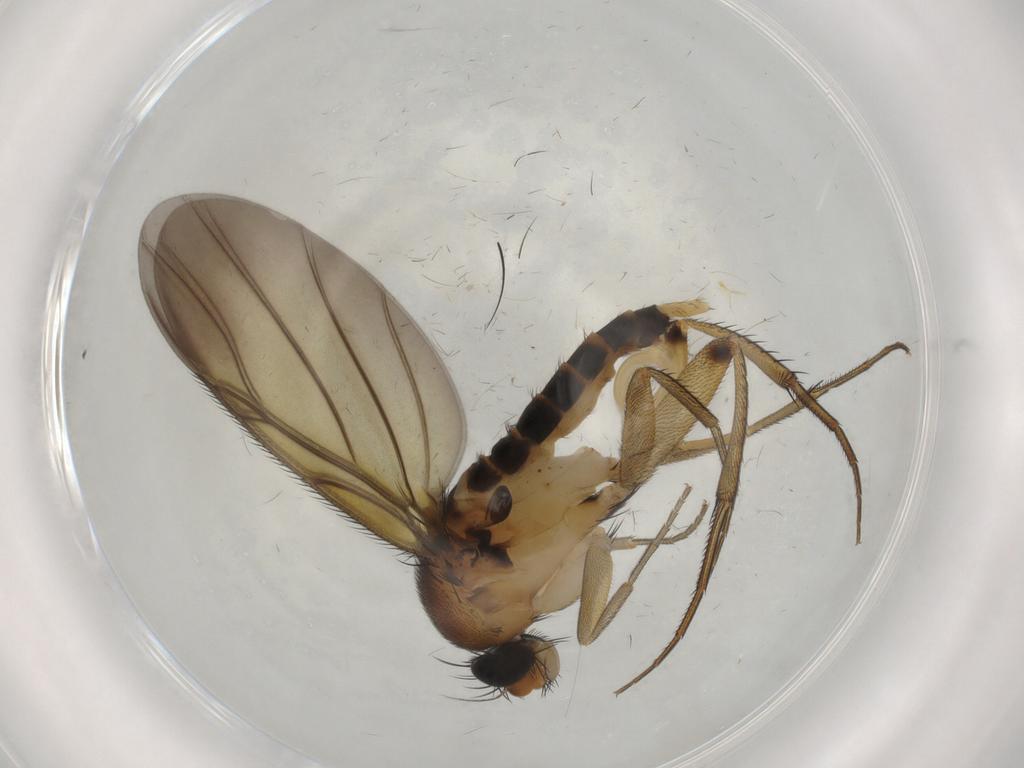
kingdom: Animalia
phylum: Arthropoda
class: Insecta
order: Diptera
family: Phoridae
